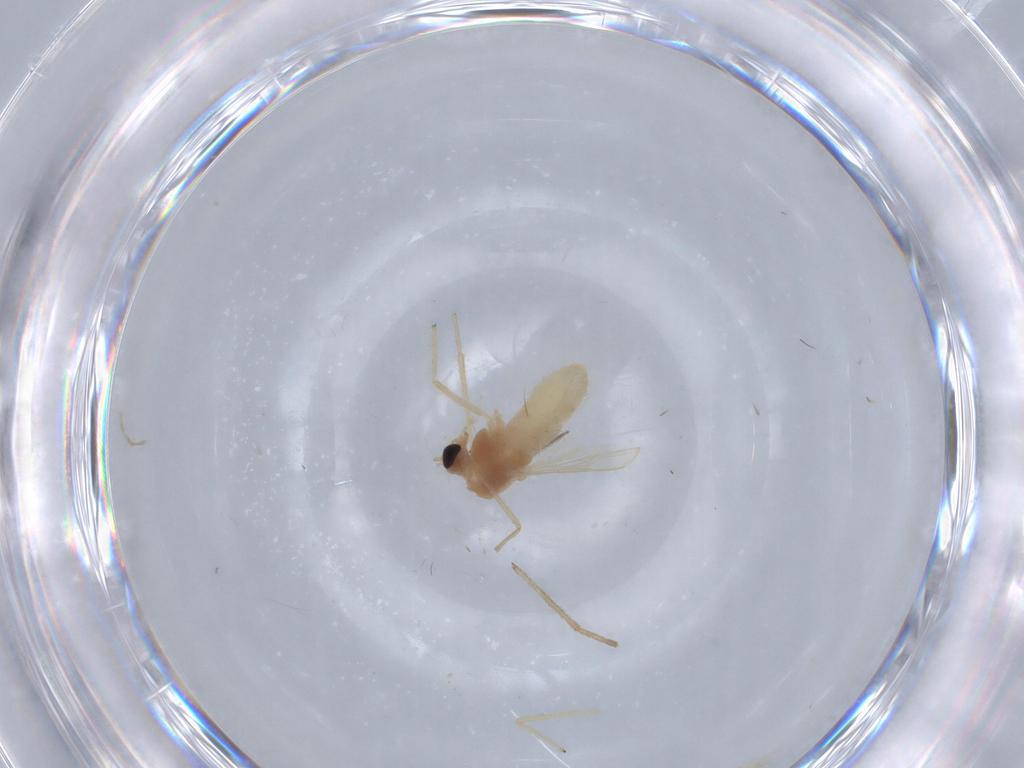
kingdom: Animalia
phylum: Arthropoda
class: Insecta
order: Diptera
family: Chironomidae
